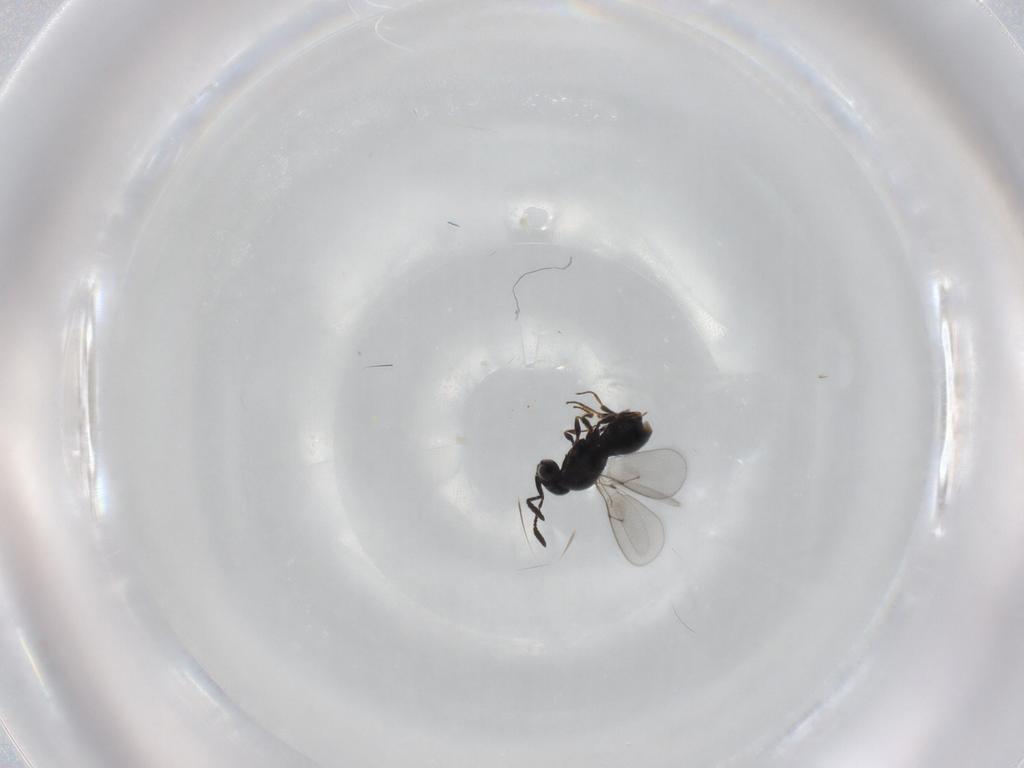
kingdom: Animalia
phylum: Arthropoda
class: Insecta
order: Hymenoptera
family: Scelionidae
